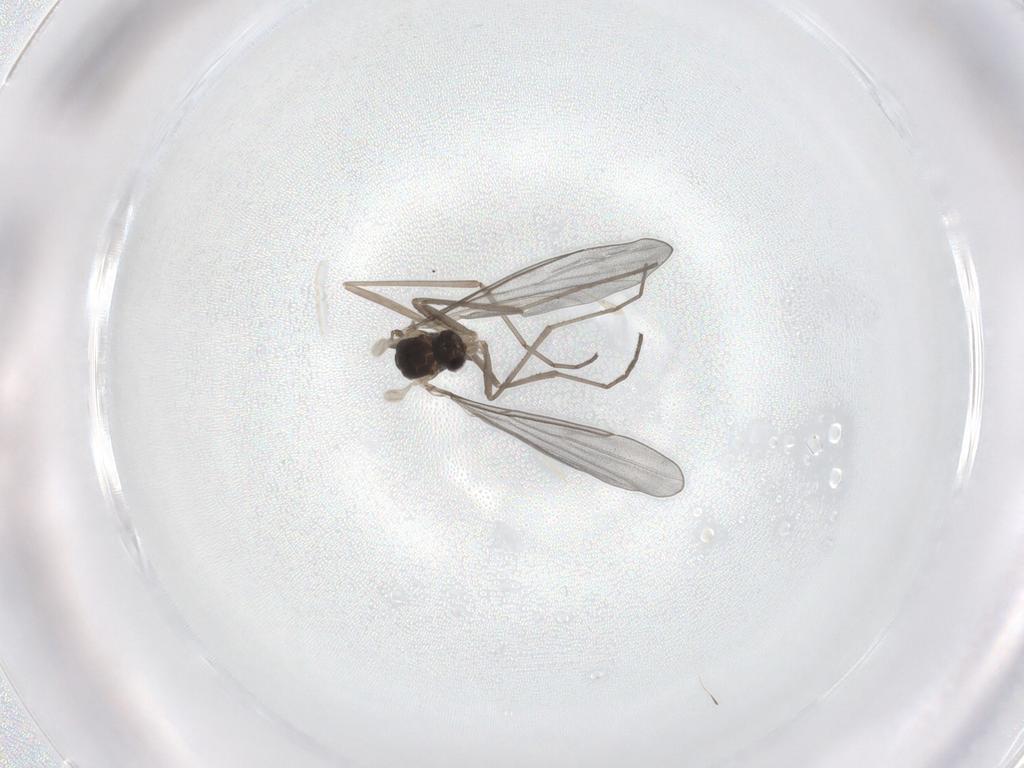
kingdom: Animalia
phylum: Arthropoda
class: Insecta
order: Diptera
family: Cecidomyiidae
